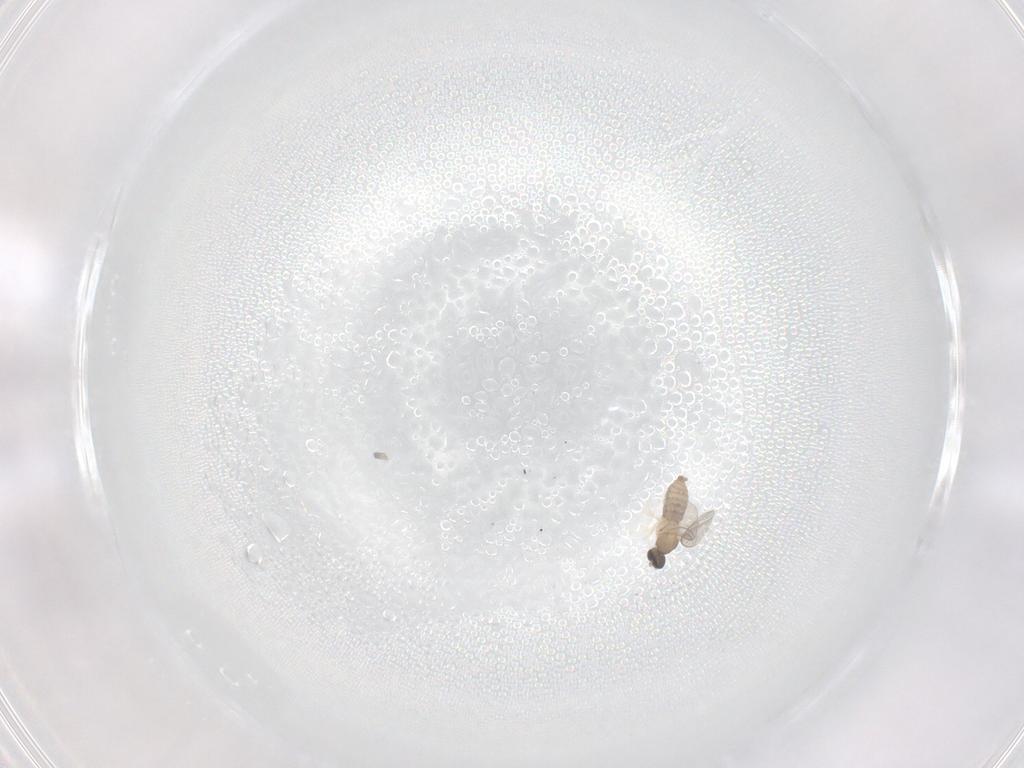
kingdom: Animalia
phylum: Arthropoda
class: Insecta
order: Diptera
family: Cecidomyiidae
